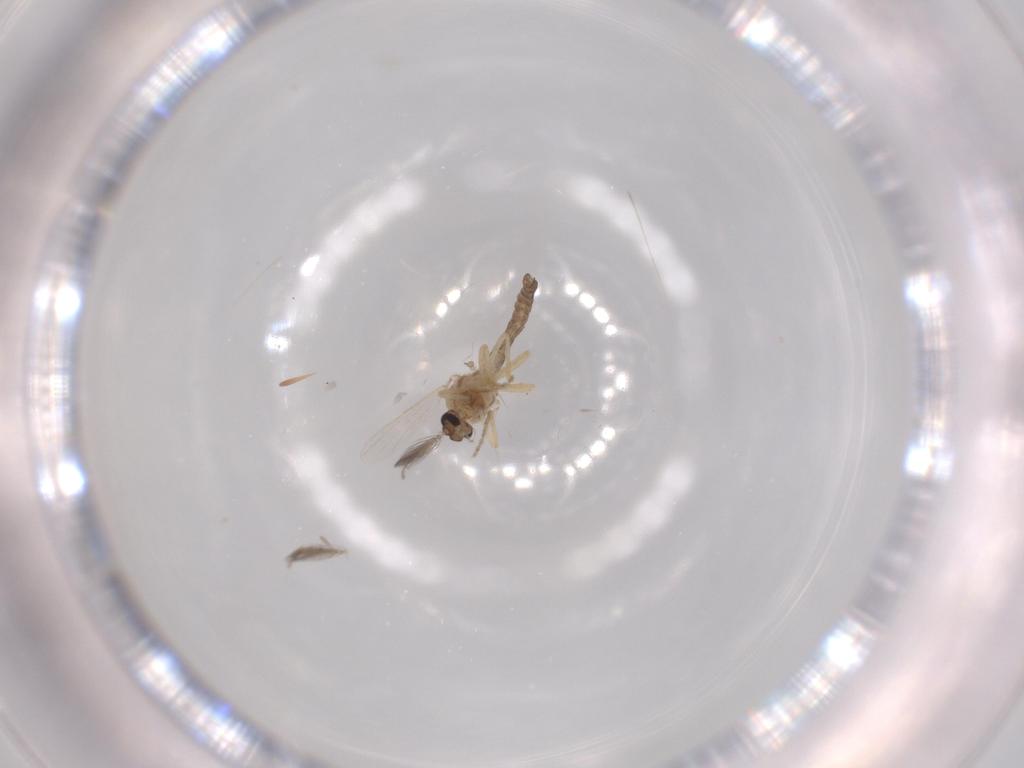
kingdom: Animalia
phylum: Arthropoda
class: Insecta
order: Diptera
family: Ceratopogonidae
